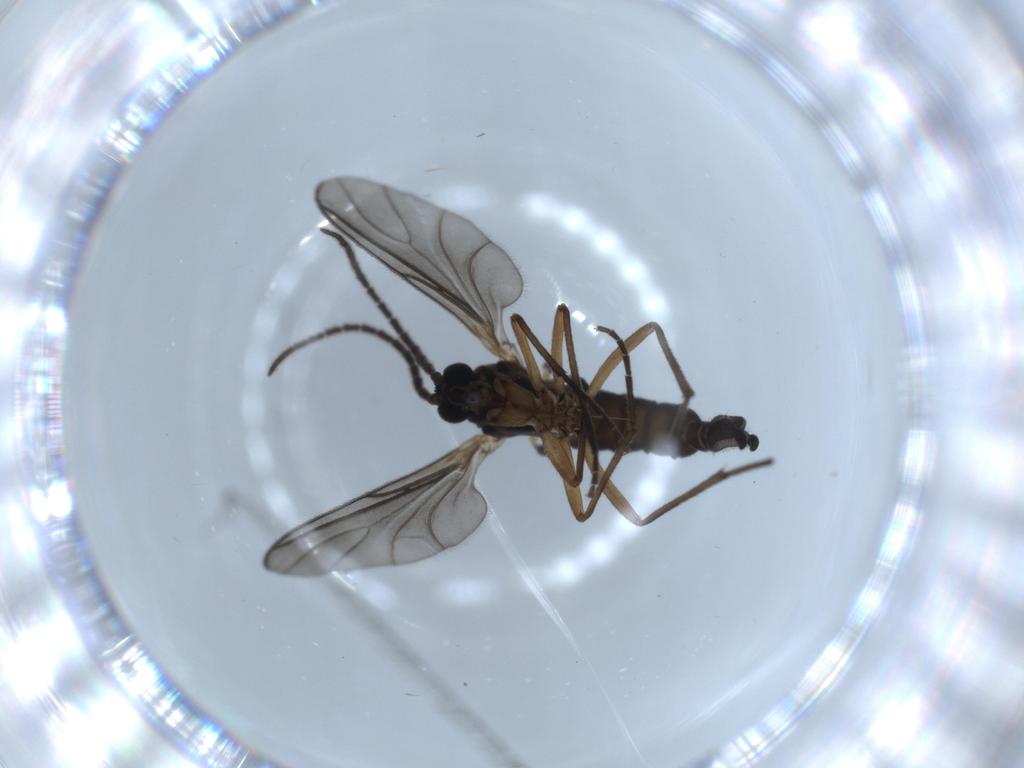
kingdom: Animalia
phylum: Arthropoda
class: Insecta
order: Diptera
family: Sciaridae
